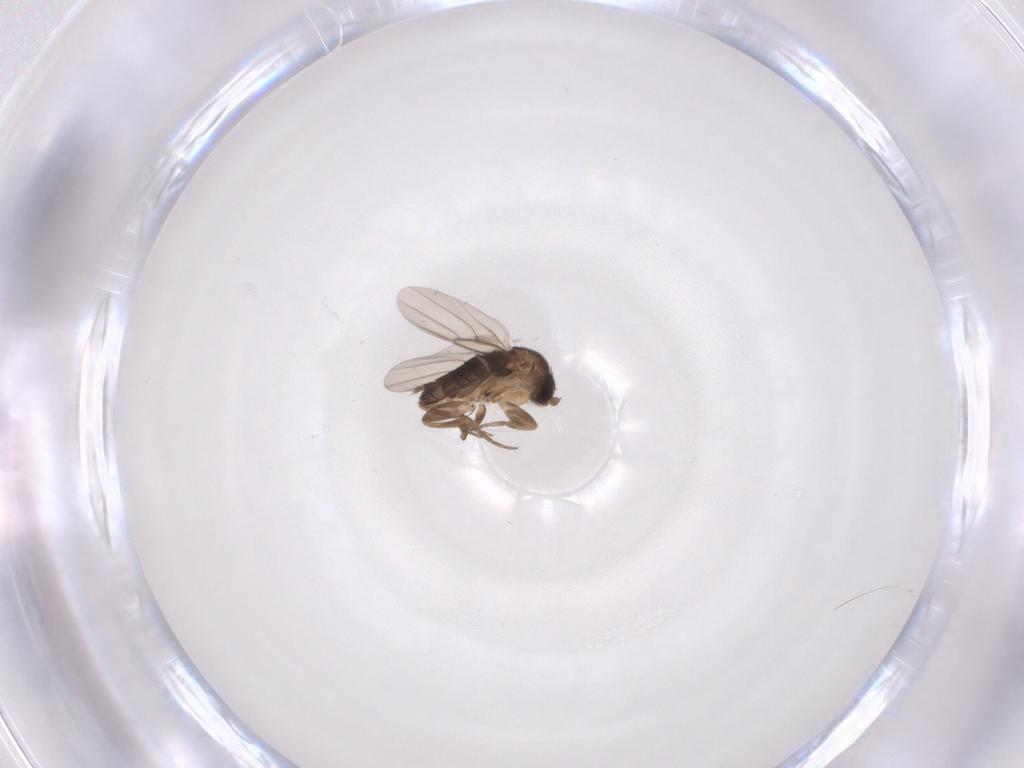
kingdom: Animalia
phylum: Arthropoda
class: Insecta
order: Diptera
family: Phoridae
